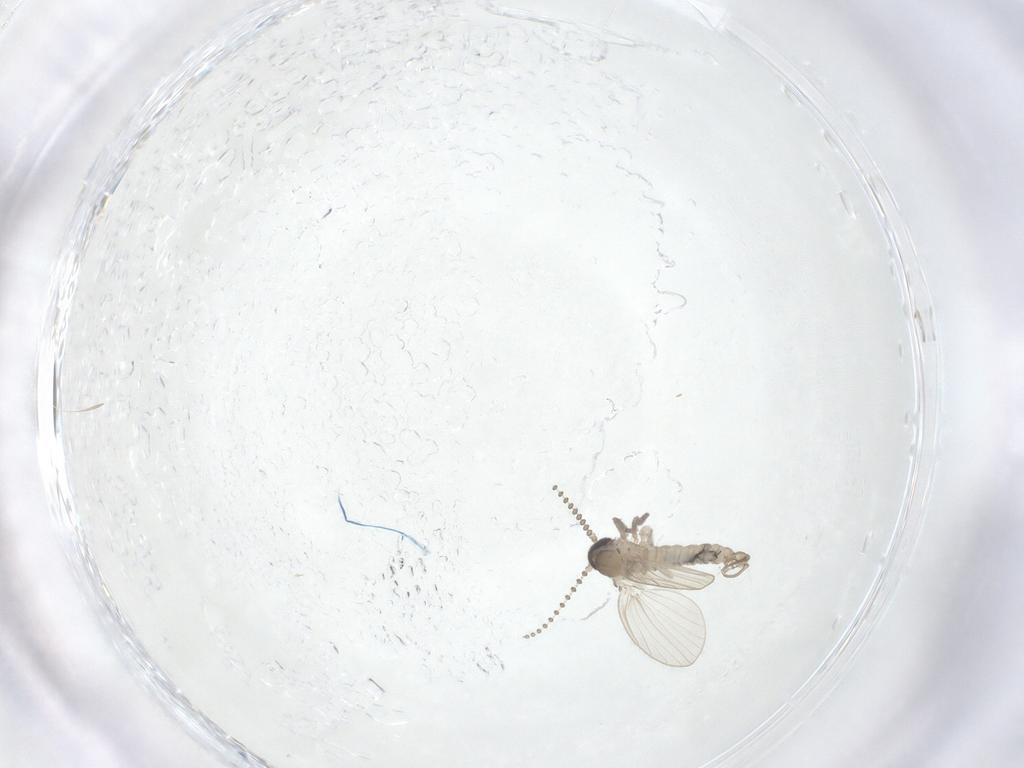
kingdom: Animalia
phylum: Arthropoda
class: Insecta
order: Diptera
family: Psychodidae
